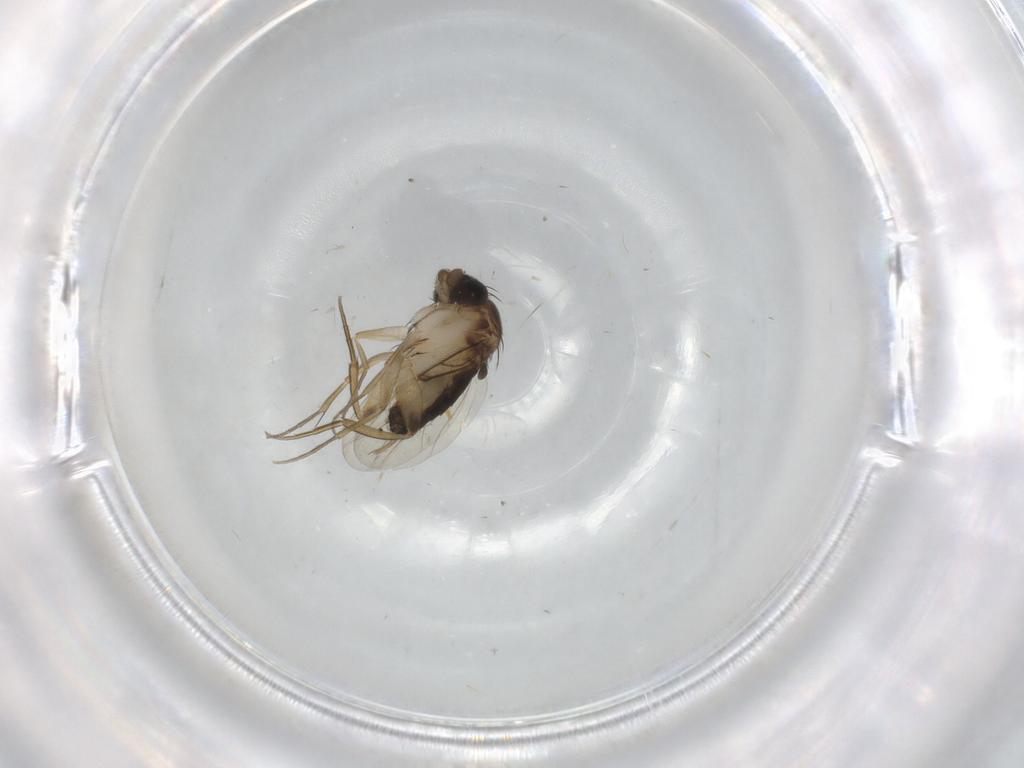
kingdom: Animalia
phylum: Arthropoda
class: Insecta
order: Diptera
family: Phoridae
